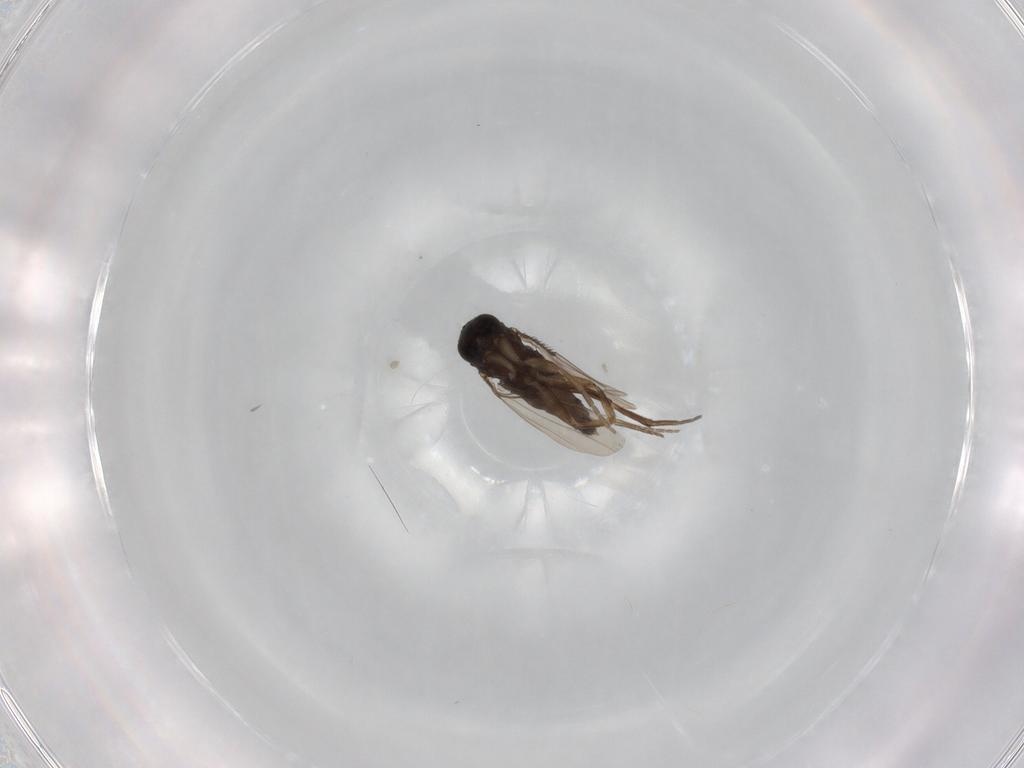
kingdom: Animalia
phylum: Arthropoda
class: Insecta
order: Diptera
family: Phoridae
